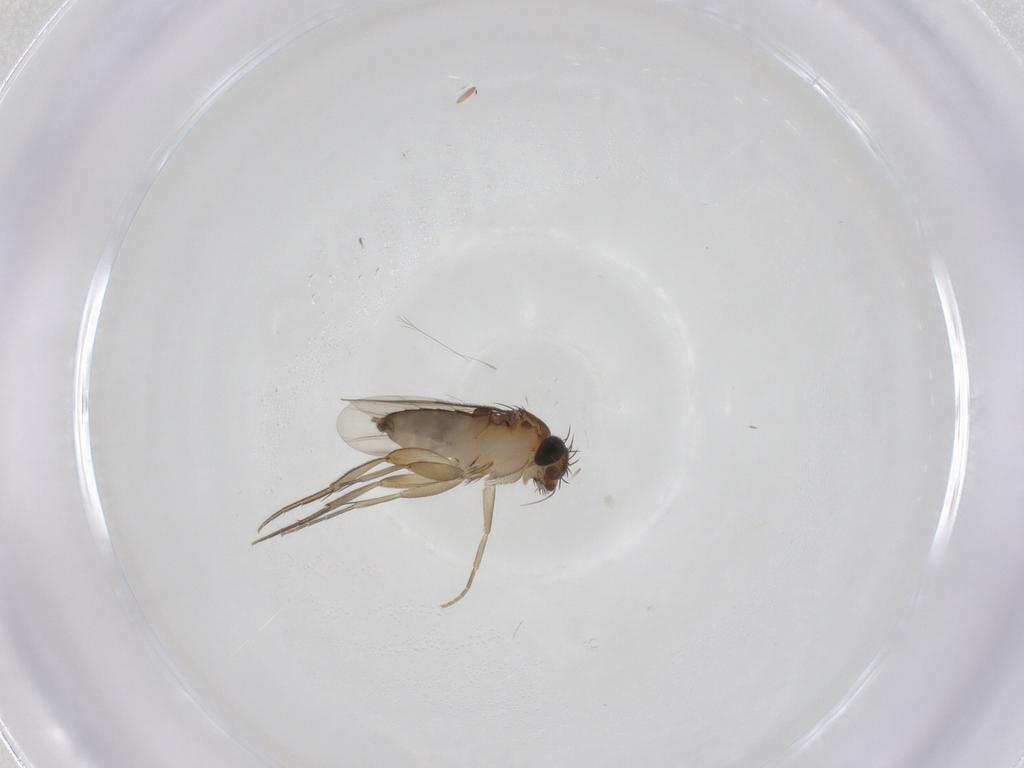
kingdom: Animalia
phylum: Arthropoda
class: Insecta
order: Diptera
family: Phoridae
